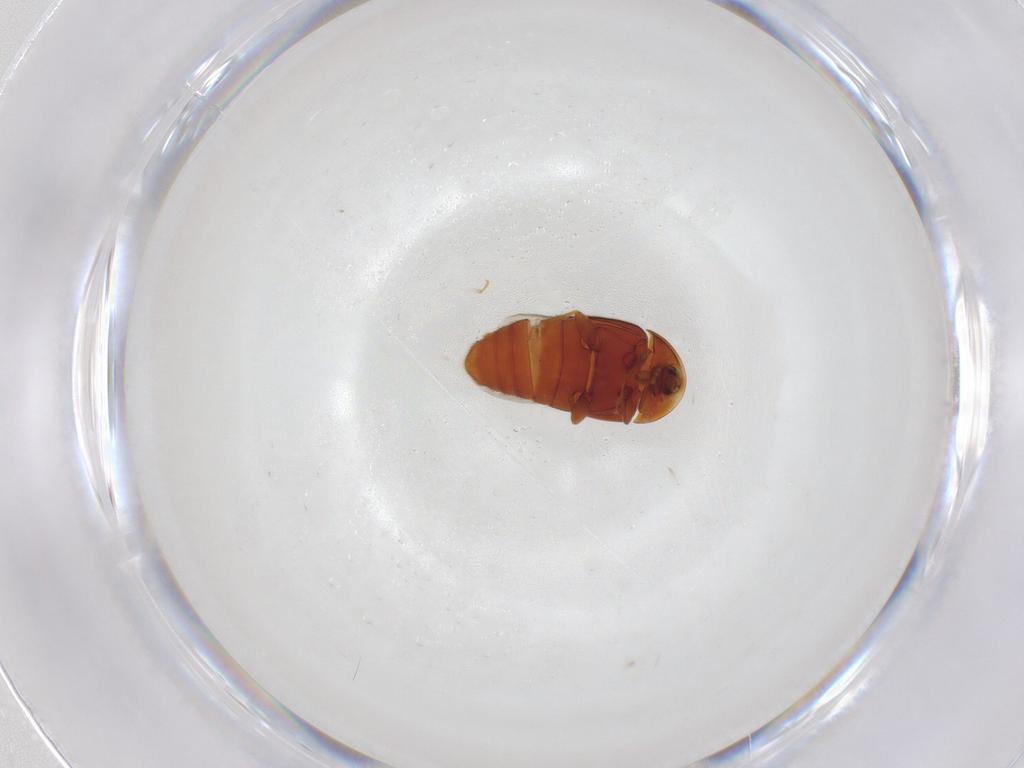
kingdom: Animalia
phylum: Arthropoda
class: Insecta
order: Coleoptera
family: Corylophidae
